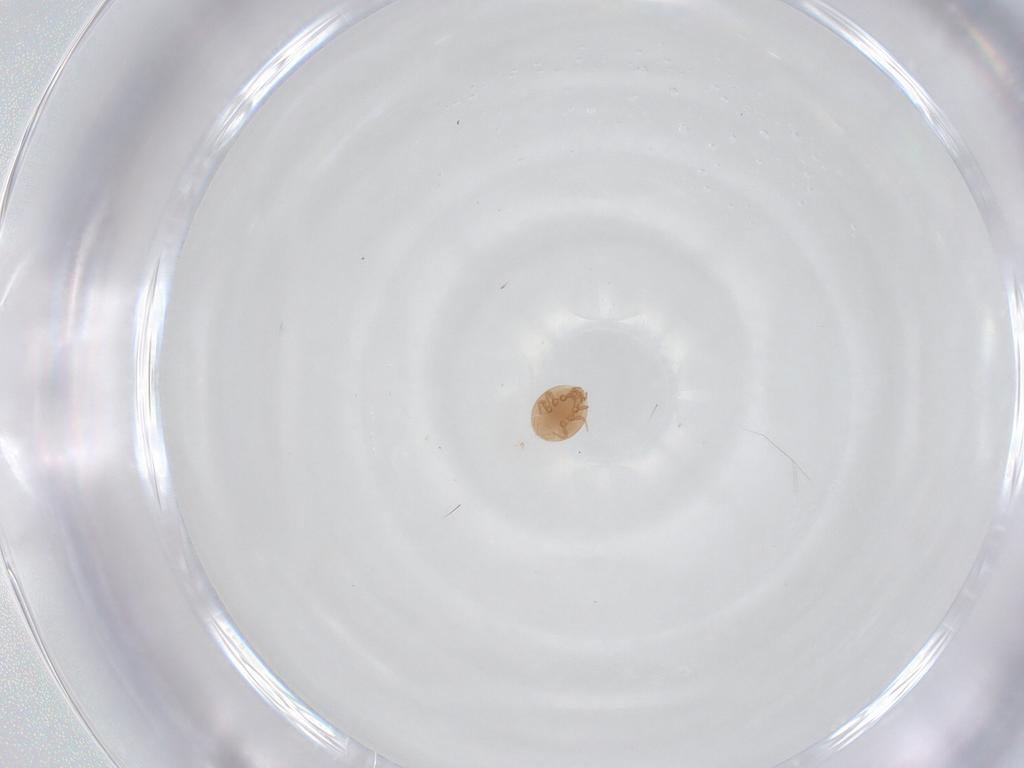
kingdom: Animalia
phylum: Arthropoda
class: Arachnida
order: Mesostigmata
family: Trematuridae
